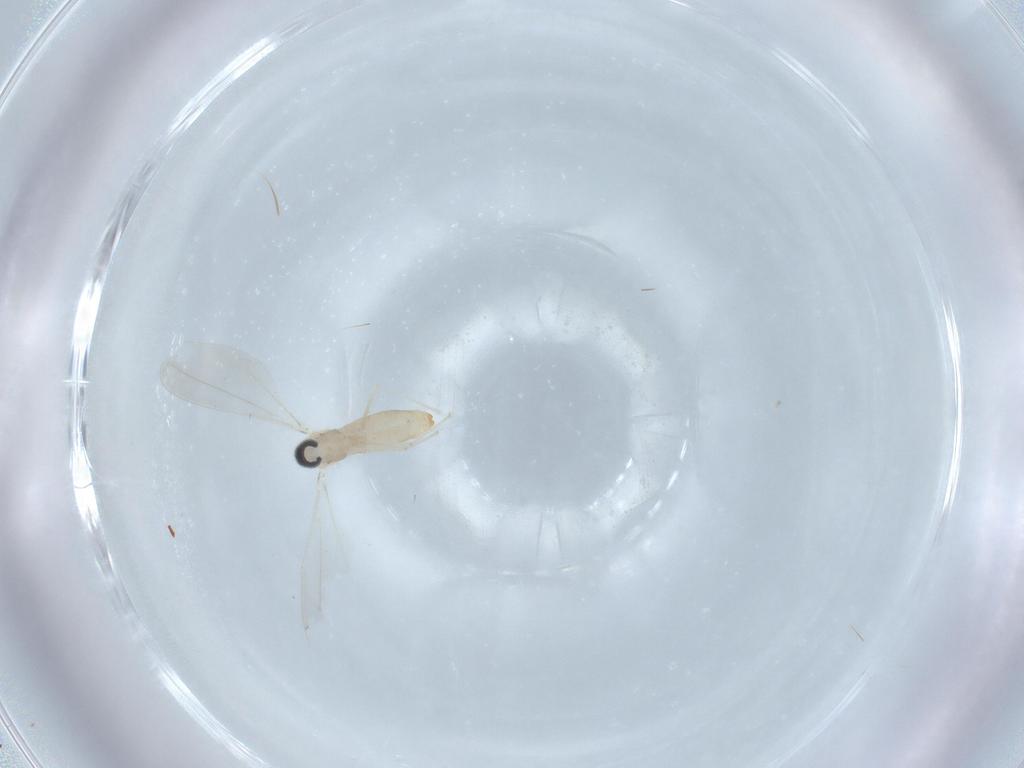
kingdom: Animalia
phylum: Arthropoda
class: Insecta
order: Diptera
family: Cecidomyiidae
